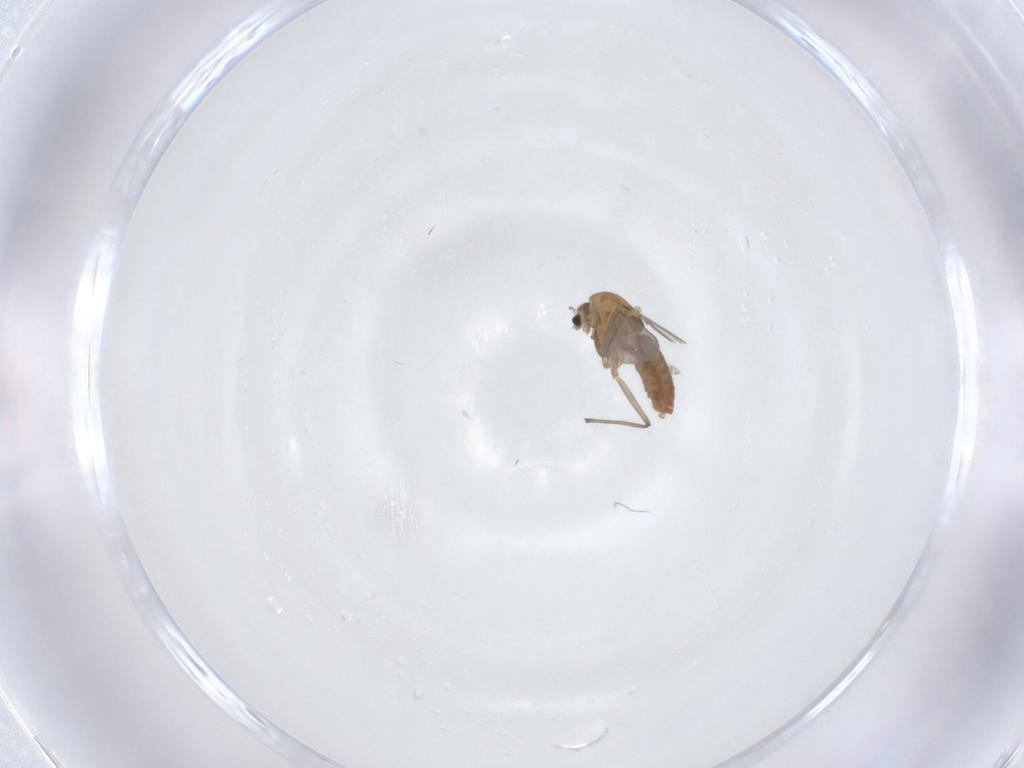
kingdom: Animalia
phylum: Arthropoda
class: Insecta
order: Diptera
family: Chironomidae
